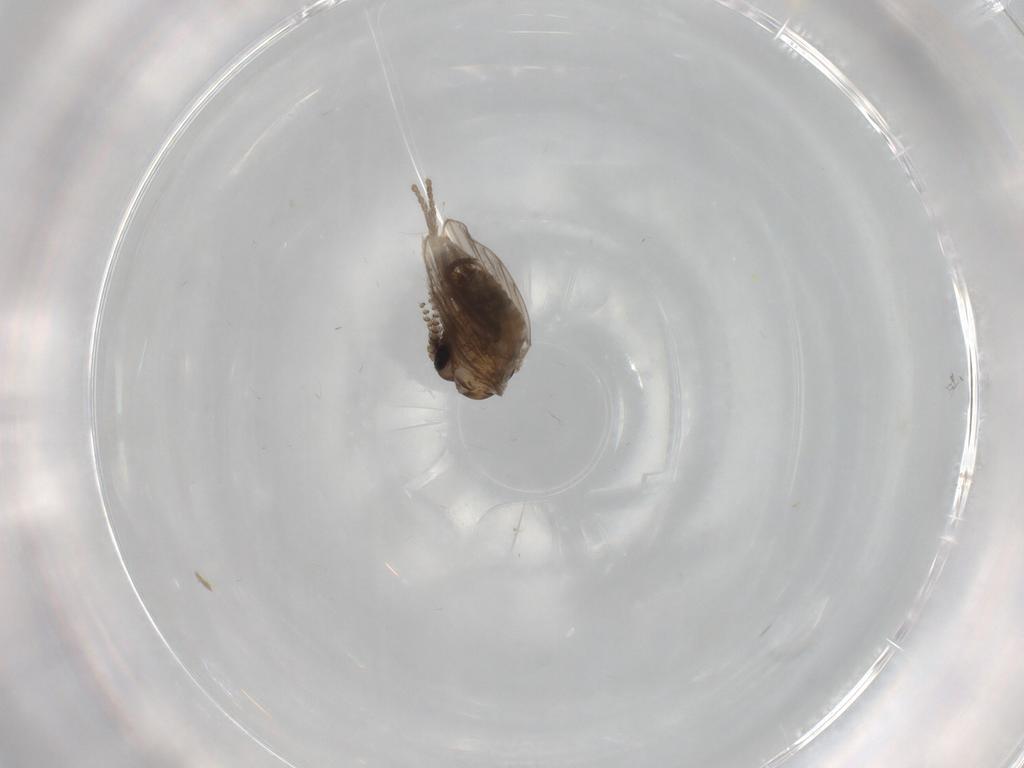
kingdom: Animalia
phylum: Arthropoda
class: Insecta
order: Diptera
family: Psychodidae
